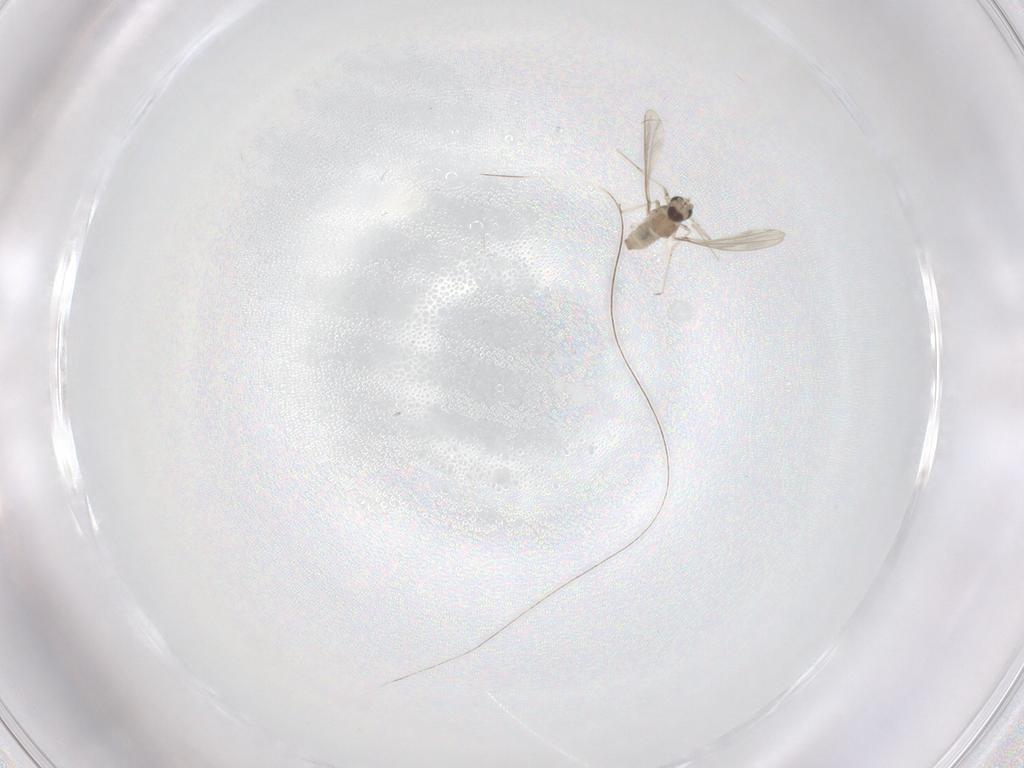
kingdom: Animalia
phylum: Arthropoda
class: Insecta
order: Diptera
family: Cecidomyiidae
